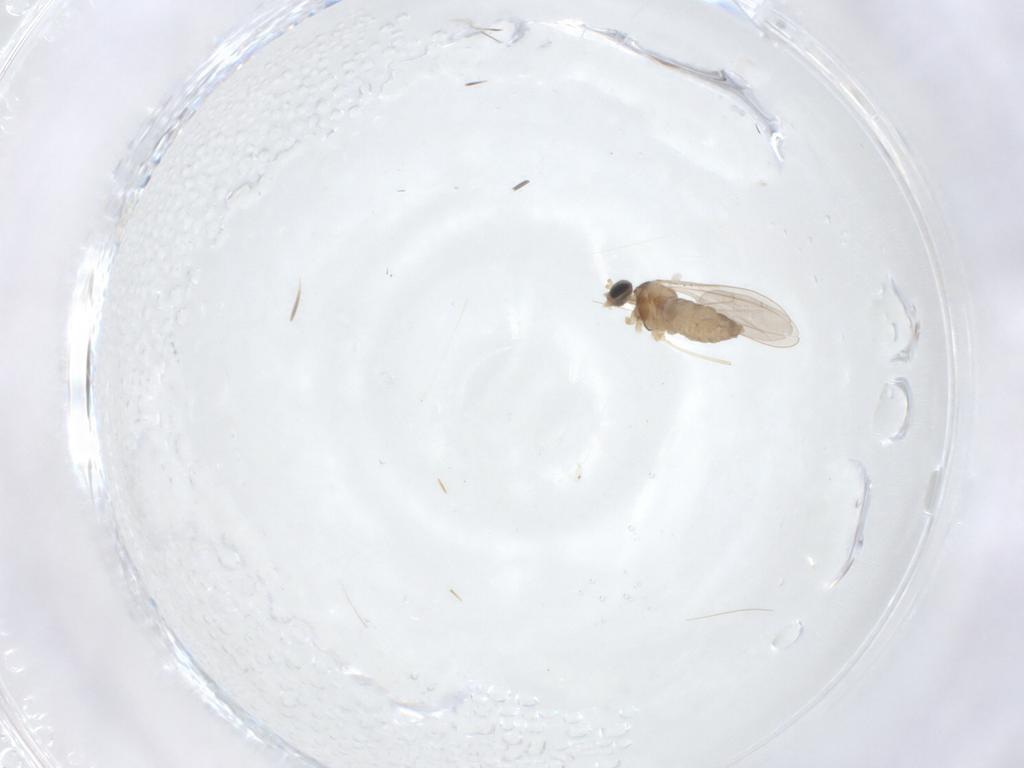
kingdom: Animalia
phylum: Arthropoda
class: Insecta
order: Diptera
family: Cecidomyiidae
